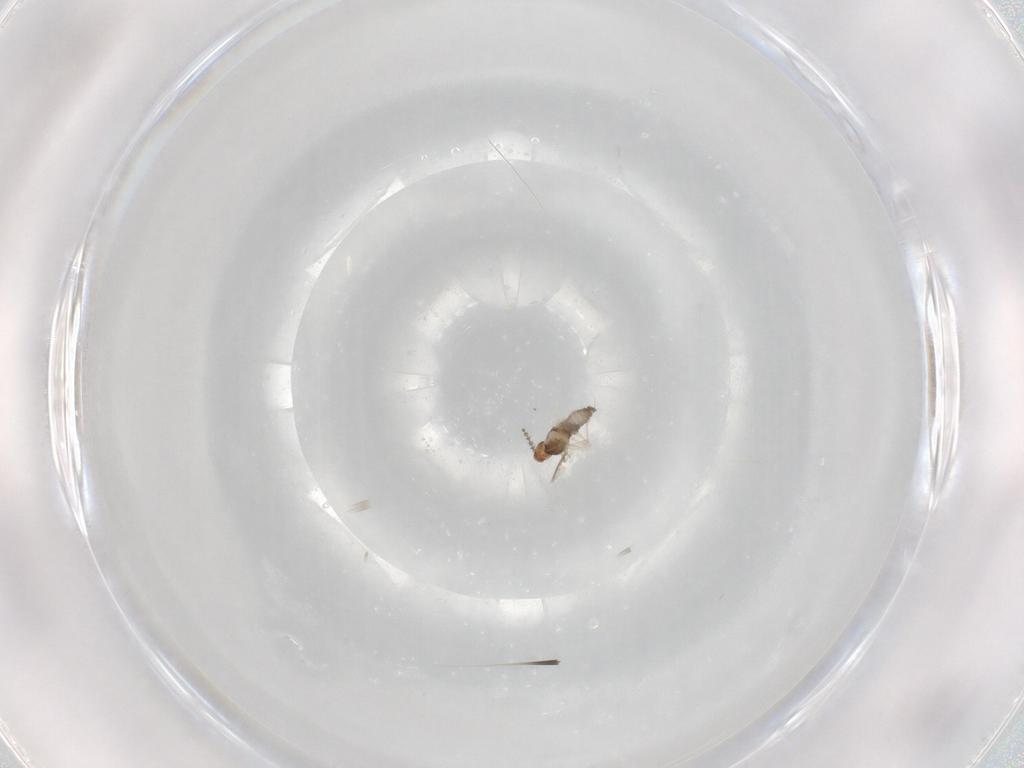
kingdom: Animalia
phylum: Arthropoda
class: Insecta
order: Diptera
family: Cecidomyiidae
